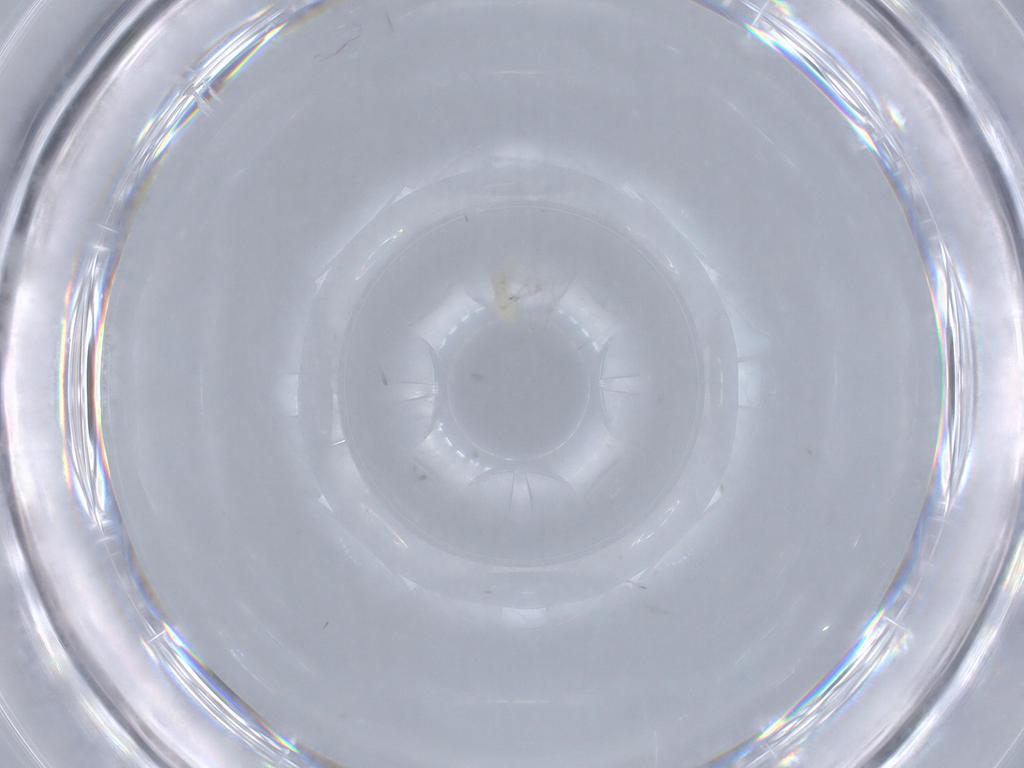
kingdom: Animalia
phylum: Arthropoda
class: Arachnida
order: Trombidiformes
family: Erythraeidae
